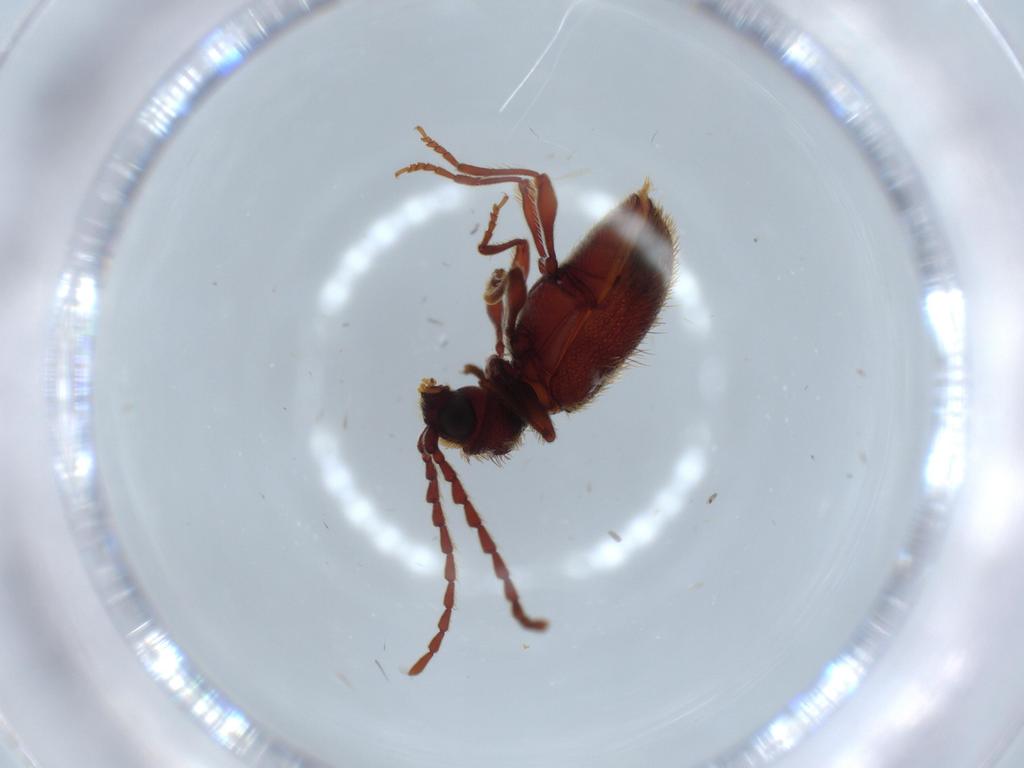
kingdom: Animalia
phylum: Arthropoda
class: Insecta
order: Coleoptera
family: Ptinidae
